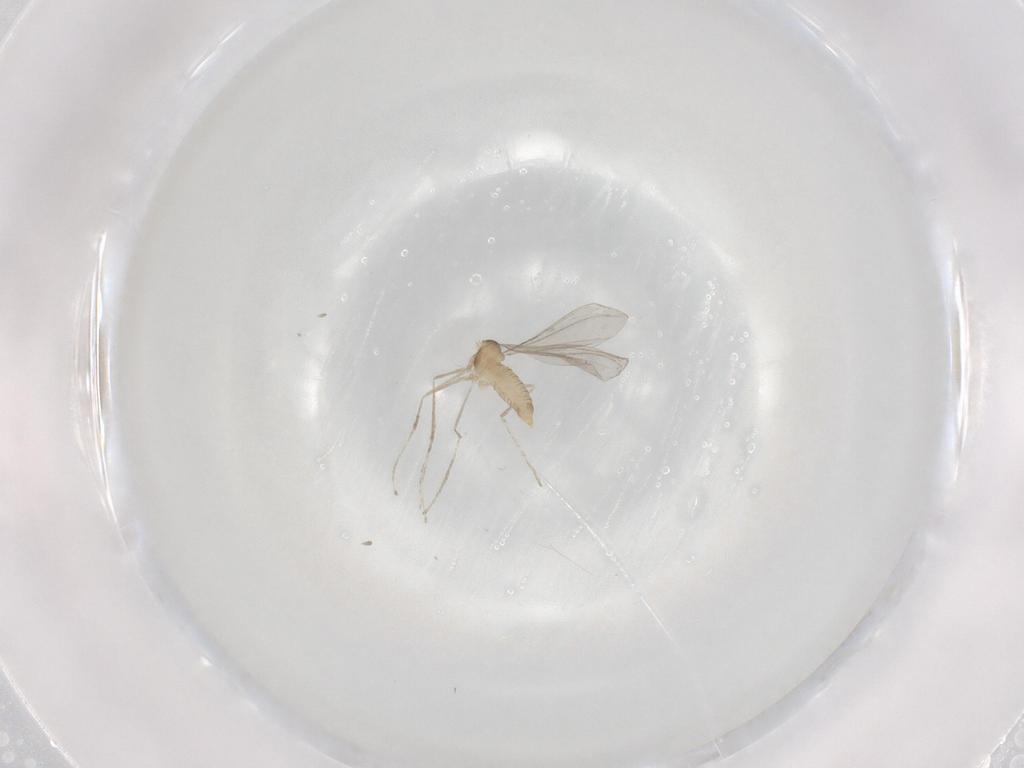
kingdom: Animalia
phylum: Arthropoda
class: Insecta
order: Diptera
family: Cecidomyiidae
